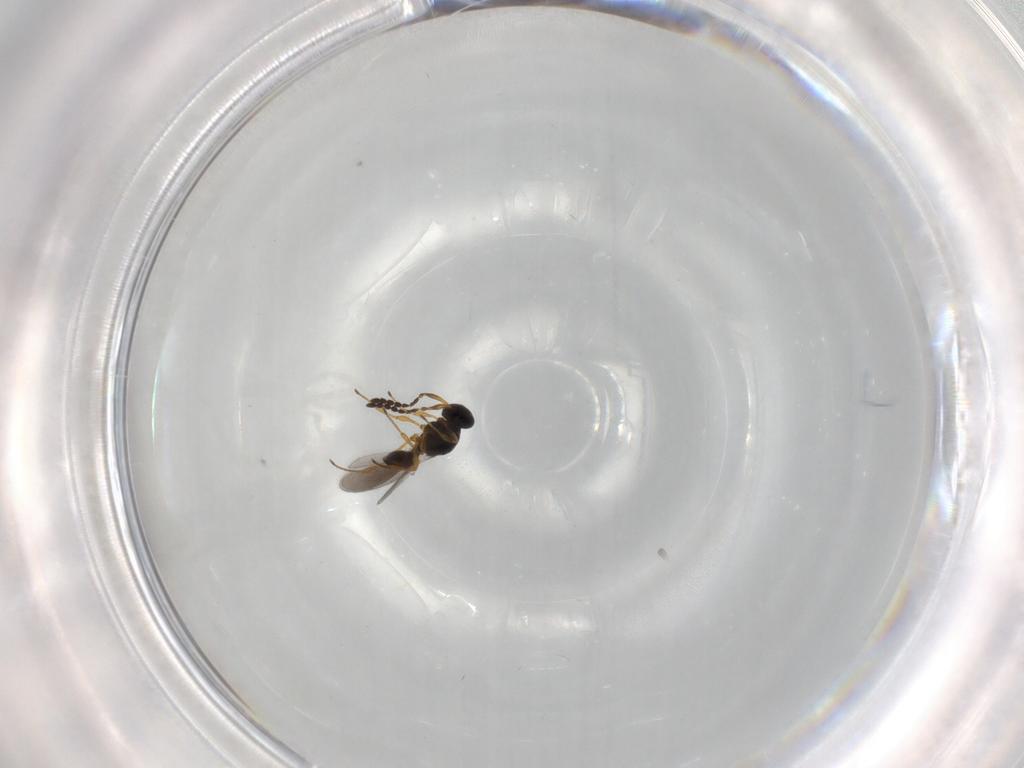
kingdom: Animalia
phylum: Arthropoda
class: Insecta
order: Hymenoptera
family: Platygastridae
